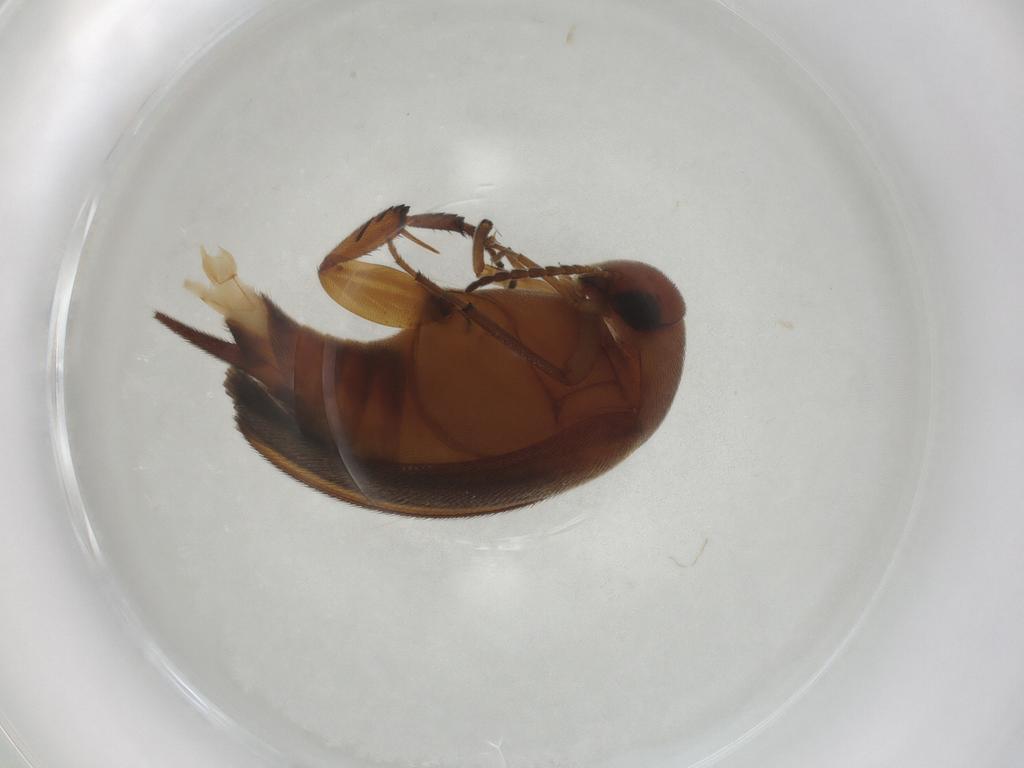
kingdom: Animalia
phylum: Arthropoda
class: Insecta
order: Coleoptera
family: Mordellidae
